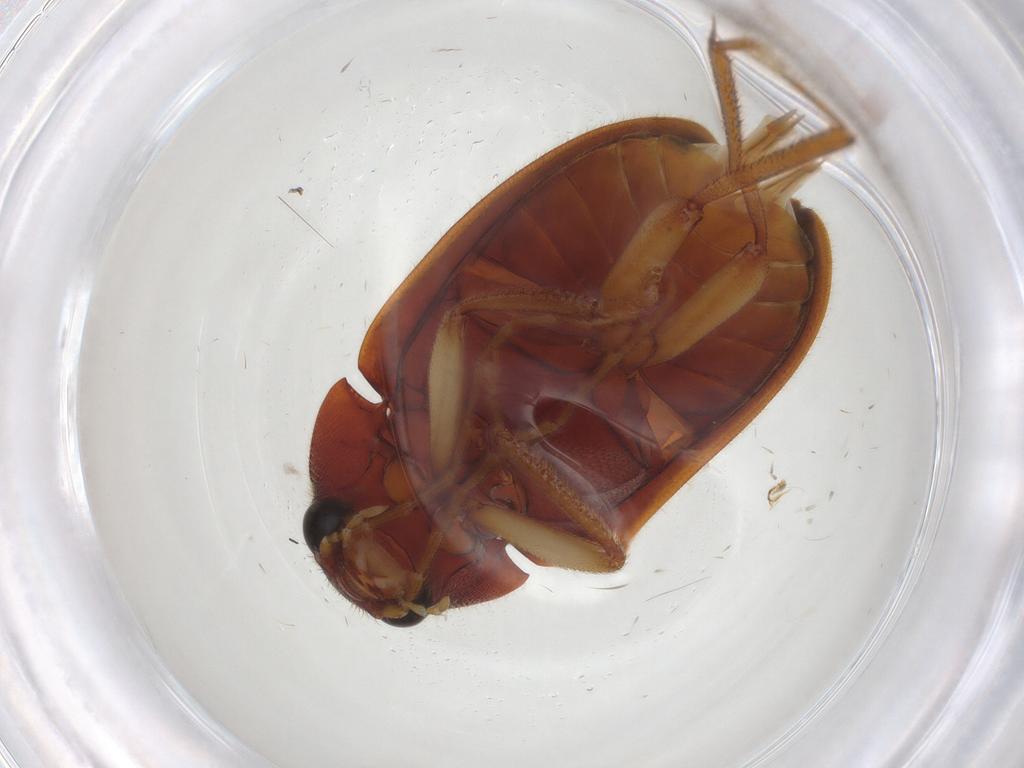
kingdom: Animalia
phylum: Arthropoda
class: Insecta
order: Coleoptera
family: Ptilodactylidae
